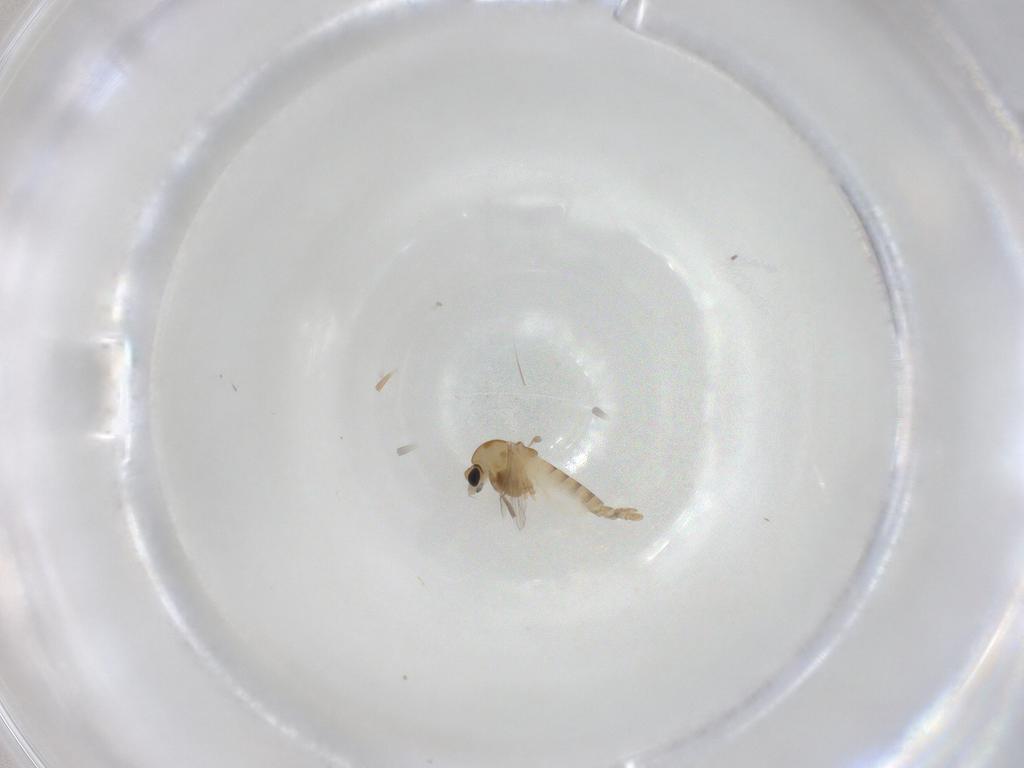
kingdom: Animalia
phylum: Arthropoda
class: Insecta
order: Diptera
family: Chironomidae
